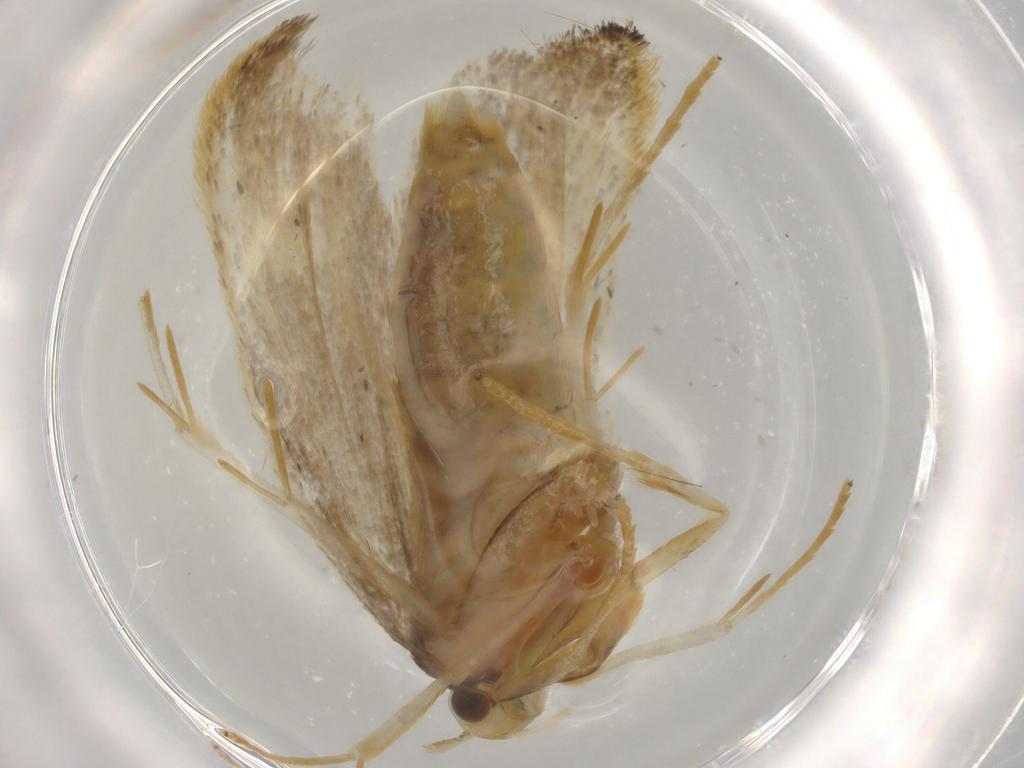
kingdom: Animalia
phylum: Arthropoda
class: Insecta
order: Lepidoptera
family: Lecithoceridae
